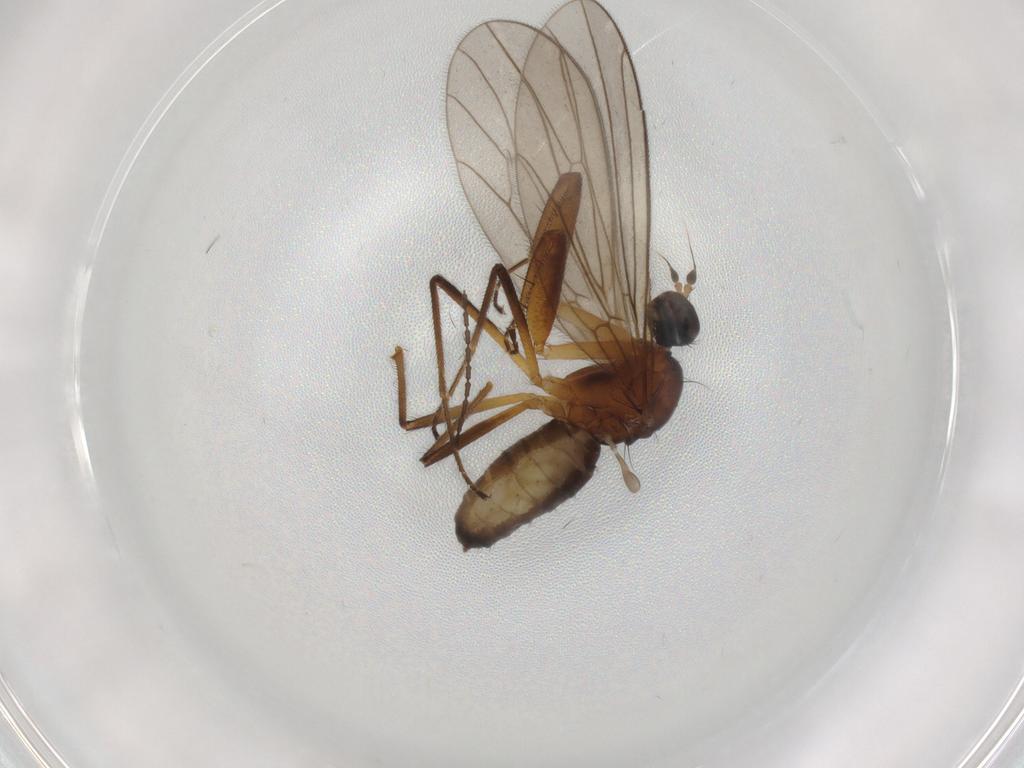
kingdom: Animalia
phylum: Arthropoda
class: Insecta
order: Diptera
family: Empididae
